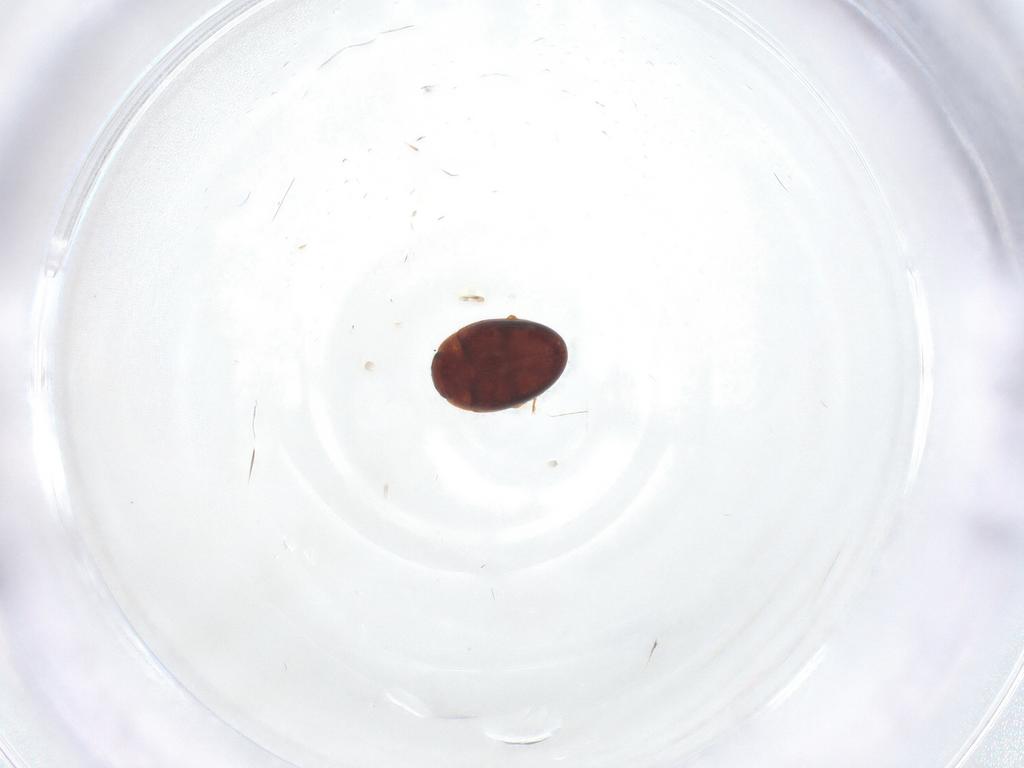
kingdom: Animalia
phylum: Arthropoda
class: Insecta
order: Coleoptera
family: Eupsilobiidae
